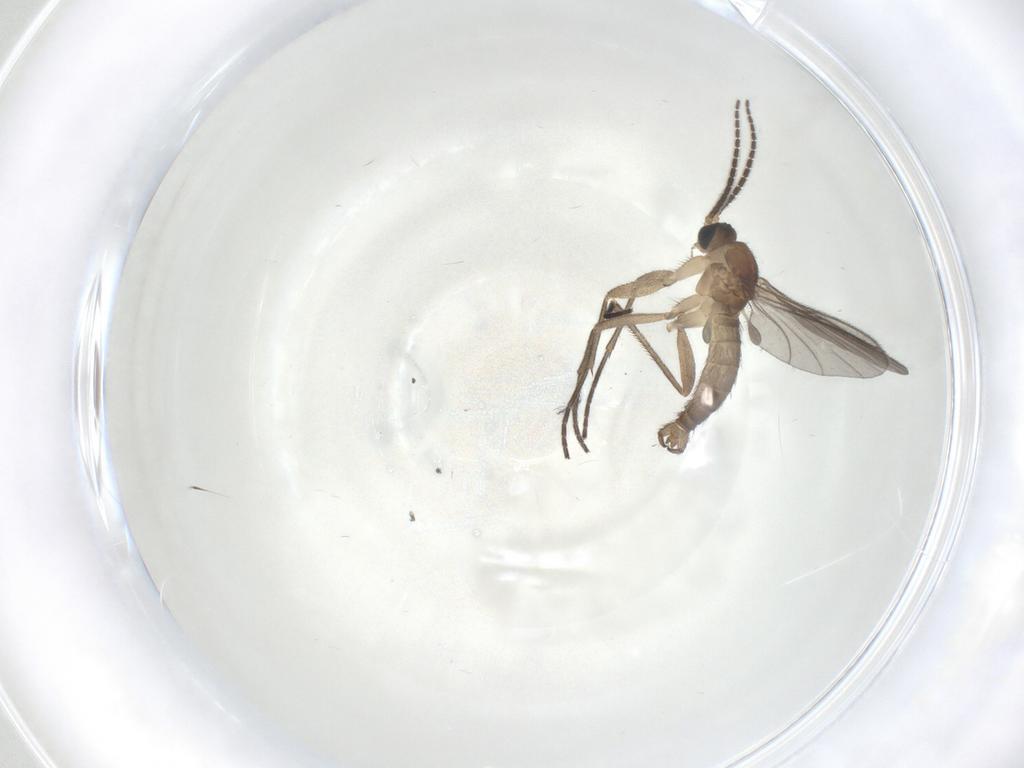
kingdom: Animalia
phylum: Arthropoda
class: Insecta
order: Diptera
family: Sciaridae
